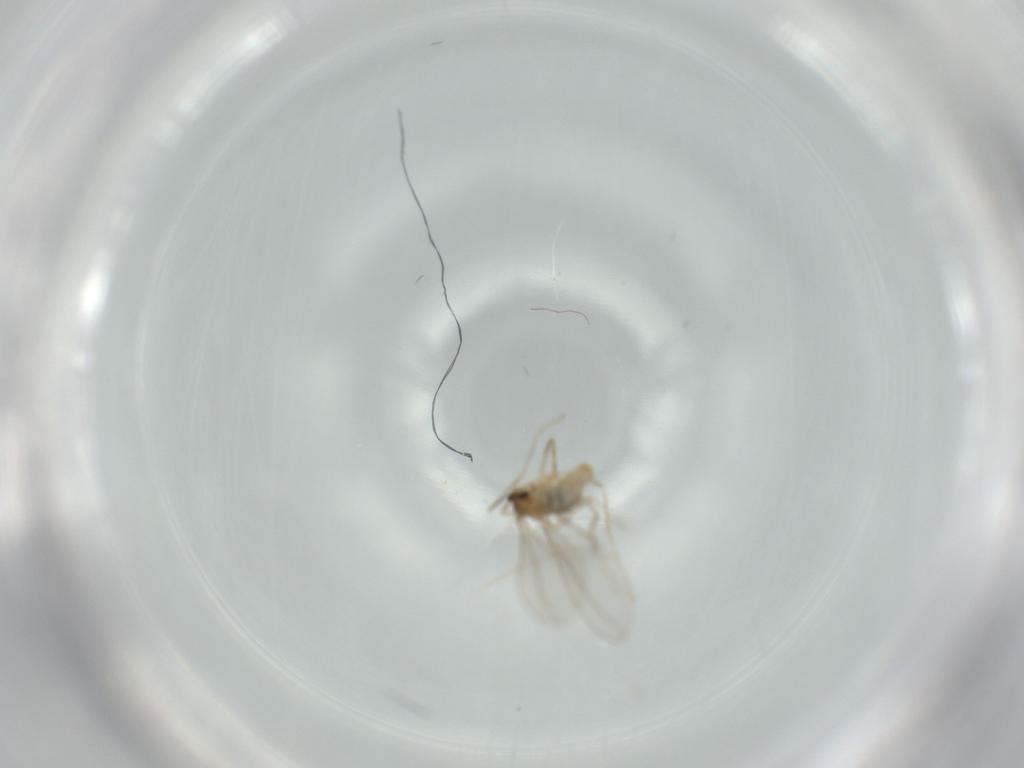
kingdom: Animalia
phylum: Arthropoda
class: Insecta
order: Diptera
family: Cecidomyiidae
